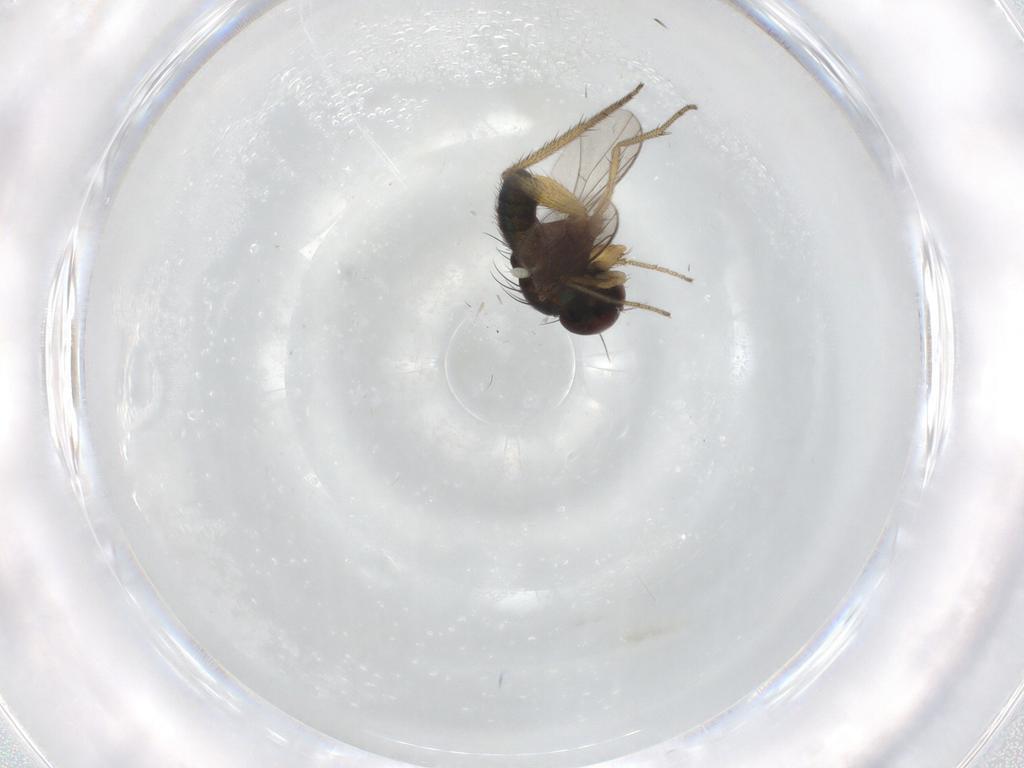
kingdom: Animalia
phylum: Arthropoda
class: Insecta
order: Diptera
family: Dolichopodidae
